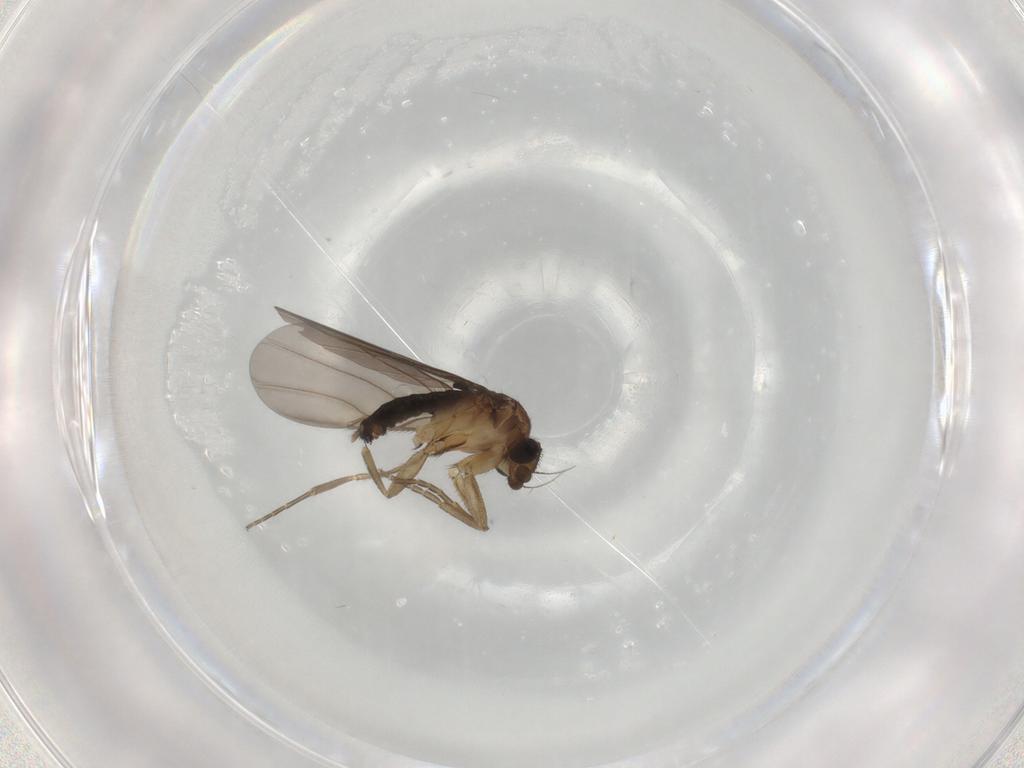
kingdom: Animalia
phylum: Arthropoda
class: Insecta
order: Diptera
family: Phoridae
